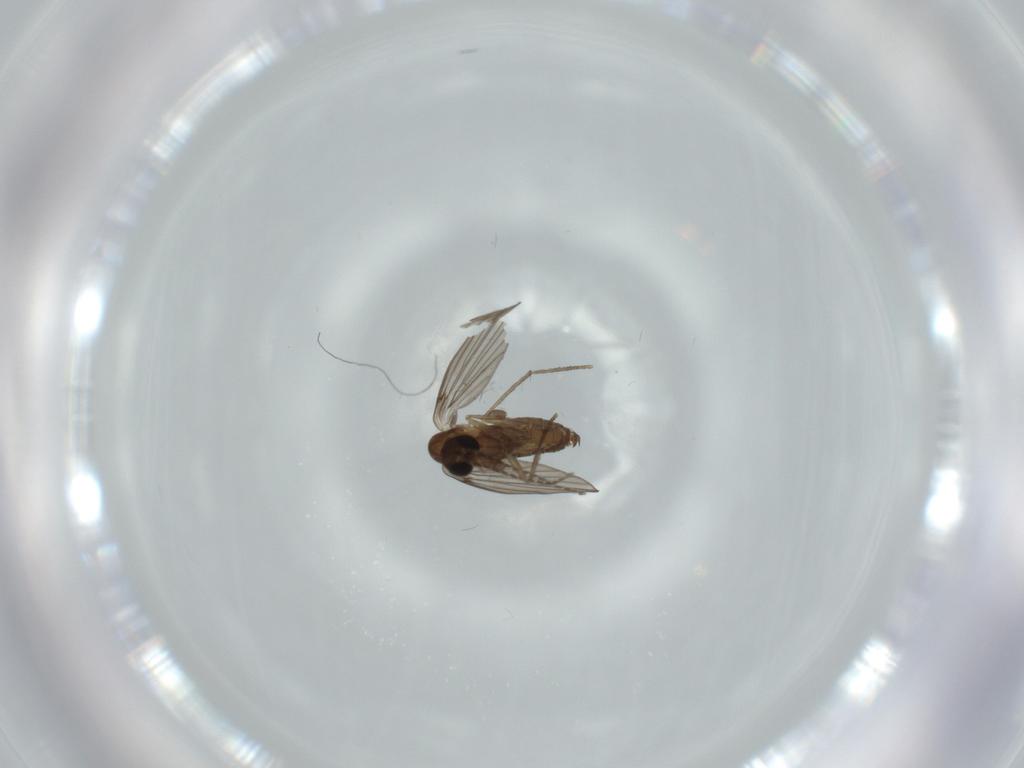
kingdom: Animalia
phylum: Arthropoda
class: Insecta
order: Diptera
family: Psychodidae
